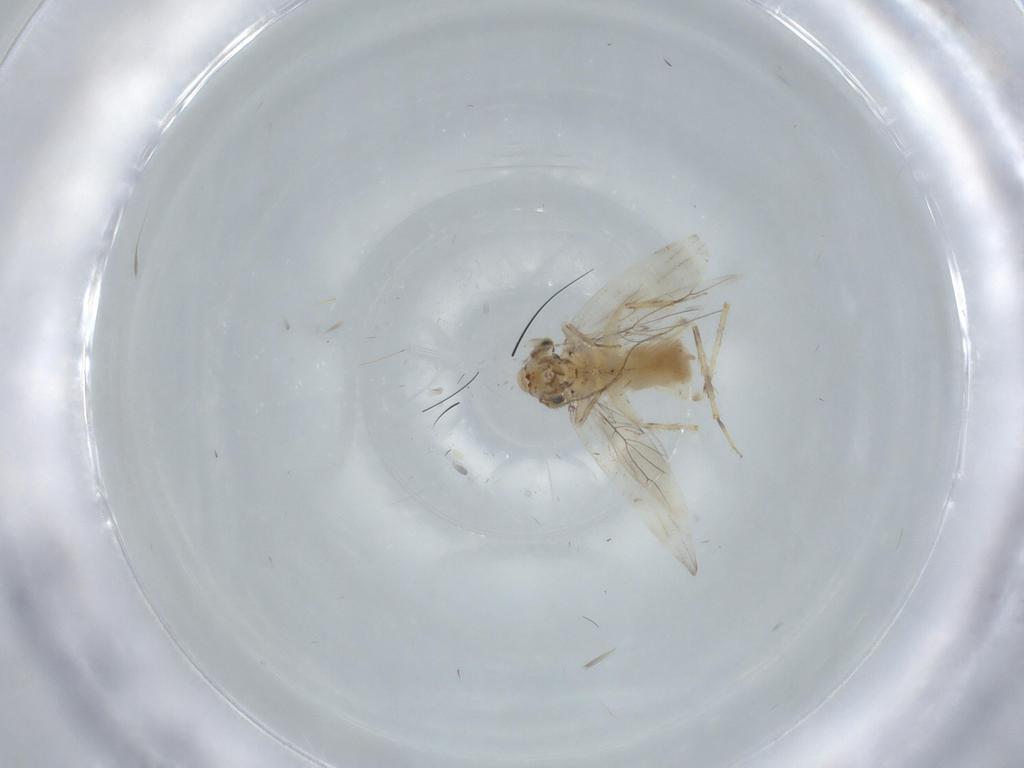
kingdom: Animalia
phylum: Arthropoda
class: Insecta
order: Psocodea
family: Lepidopsocidae
